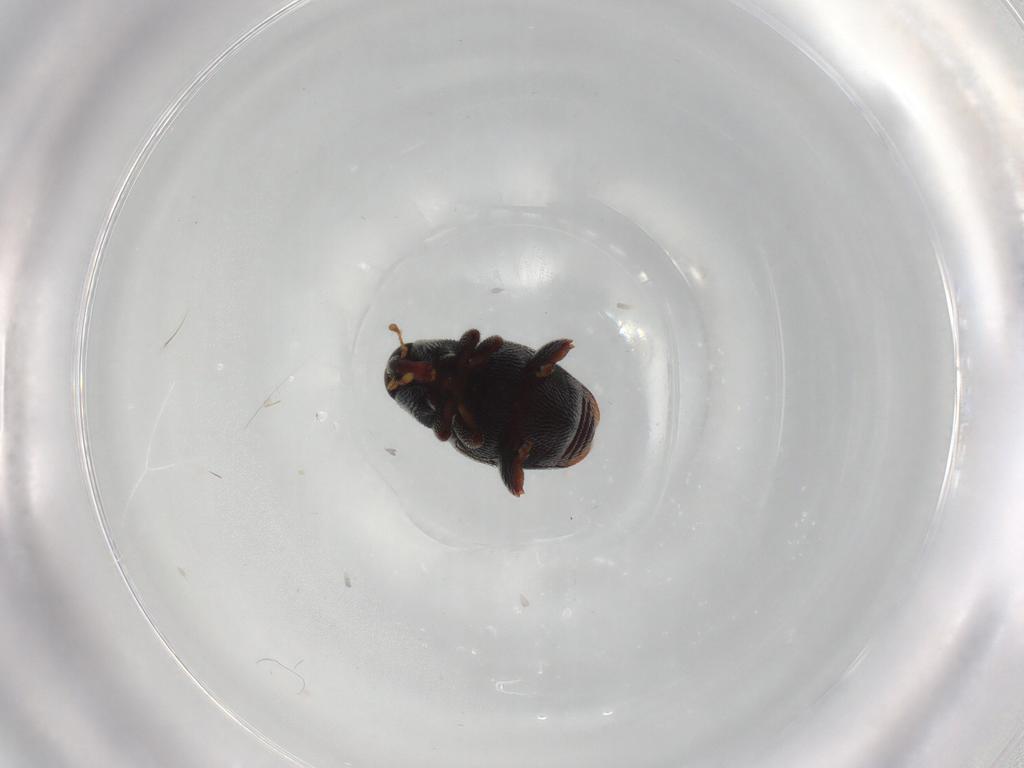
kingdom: Animalia
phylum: Arthropoda
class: Insecta
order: Coleoptera
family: Curculionidae
